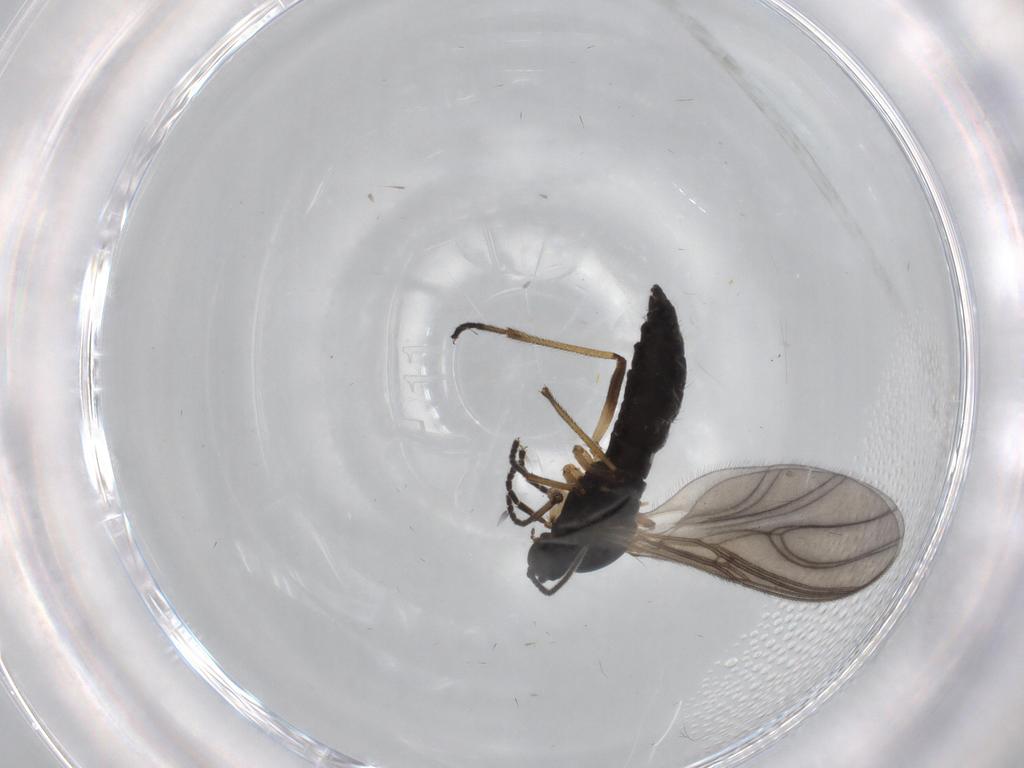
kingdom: Animalia
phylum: Arthropoda
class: Insecta
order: Diptera
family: Sciaridae
